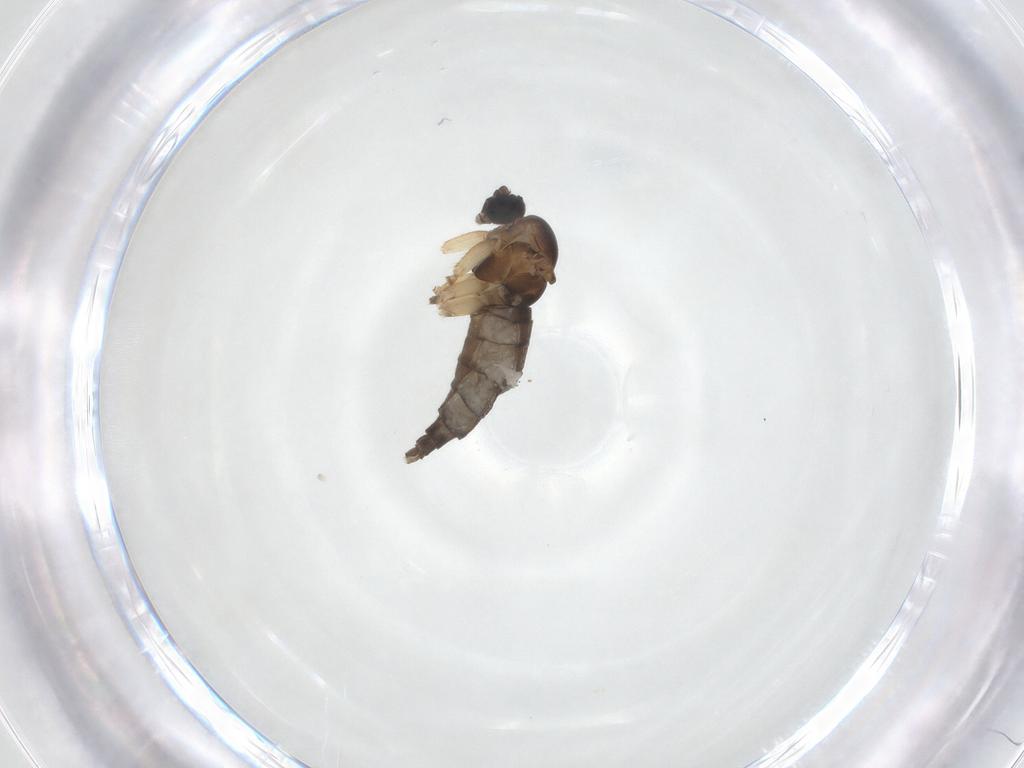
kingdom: Animalia
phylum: Arthropoda
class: Insecta
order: Diptera
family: Sciaridae
